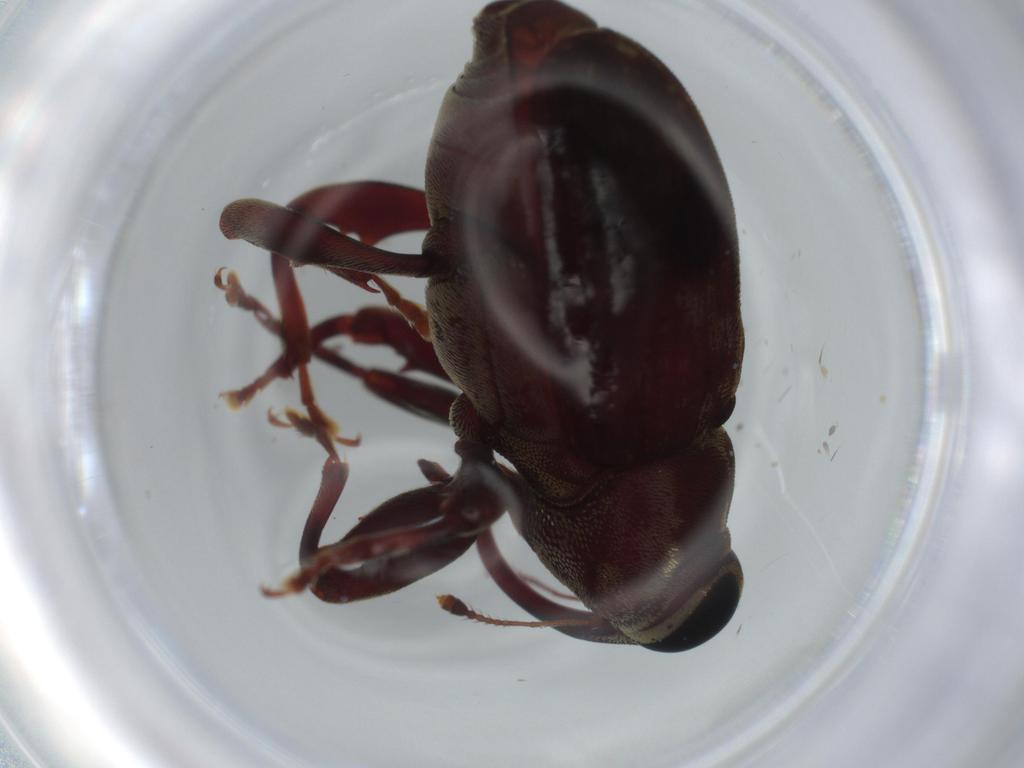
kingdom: Animalia
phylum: Arthropoda
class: Insecta
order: Coleoptera
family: Curculionidae
